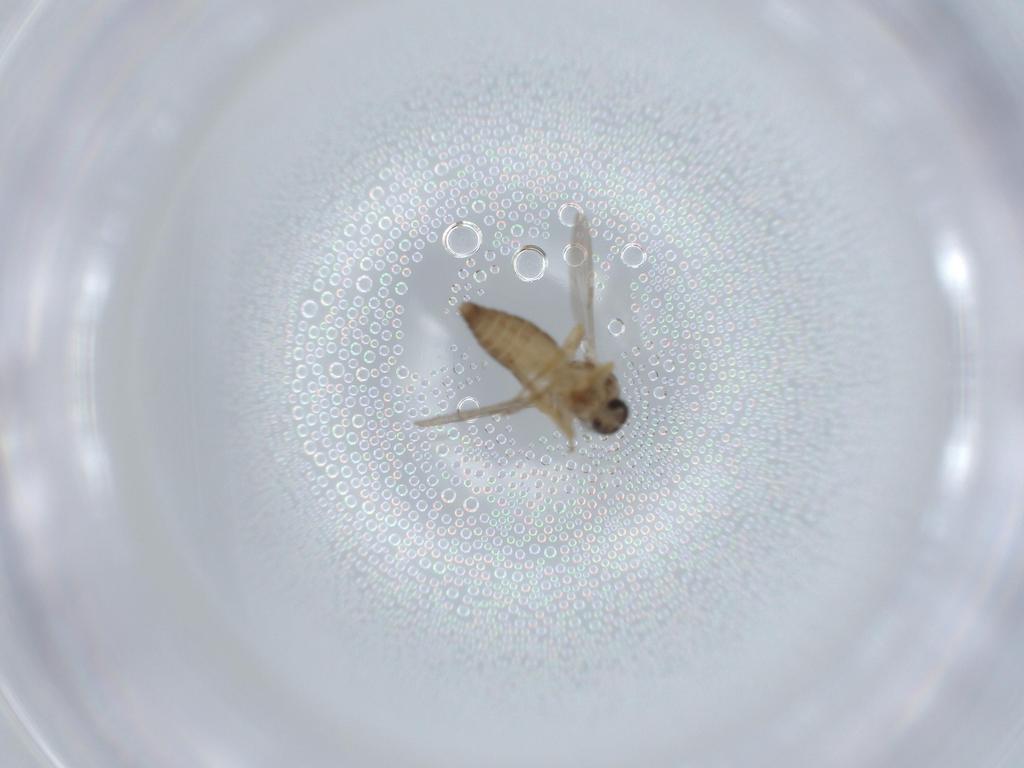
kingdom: Animalia
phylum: Arthropoda
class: Insecta
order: Diptera
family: Ceratopogonidae
